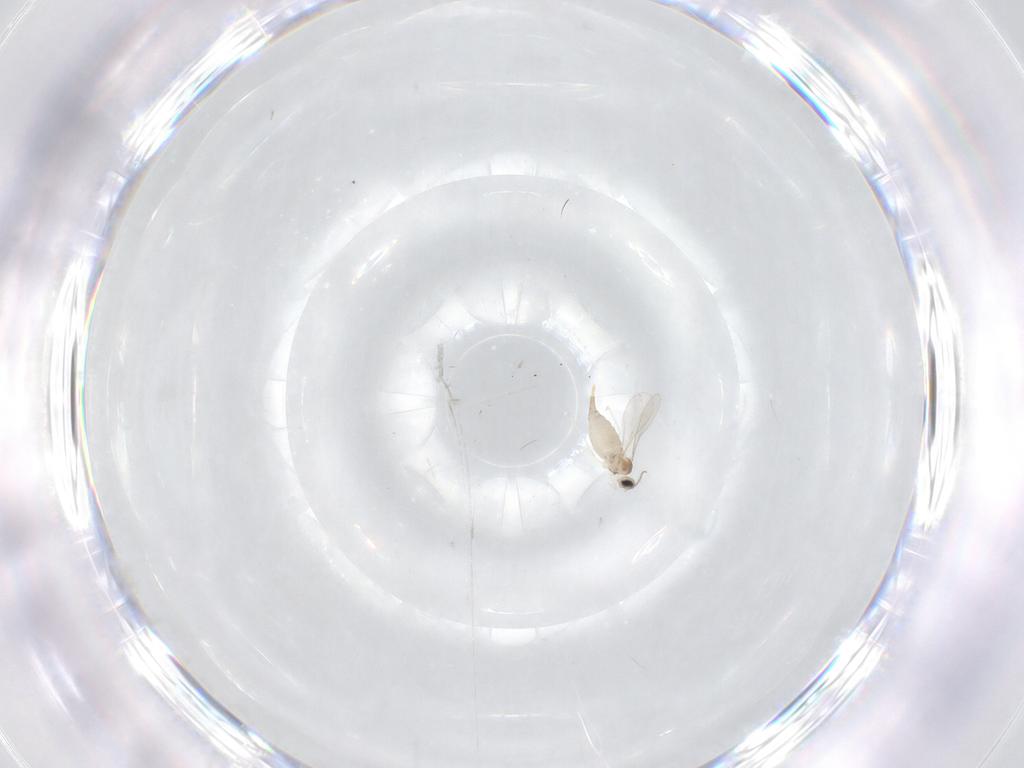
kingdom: Animalia
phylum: Arthropoda
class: Insecta
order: Diptera
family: Cecidomyiidae
